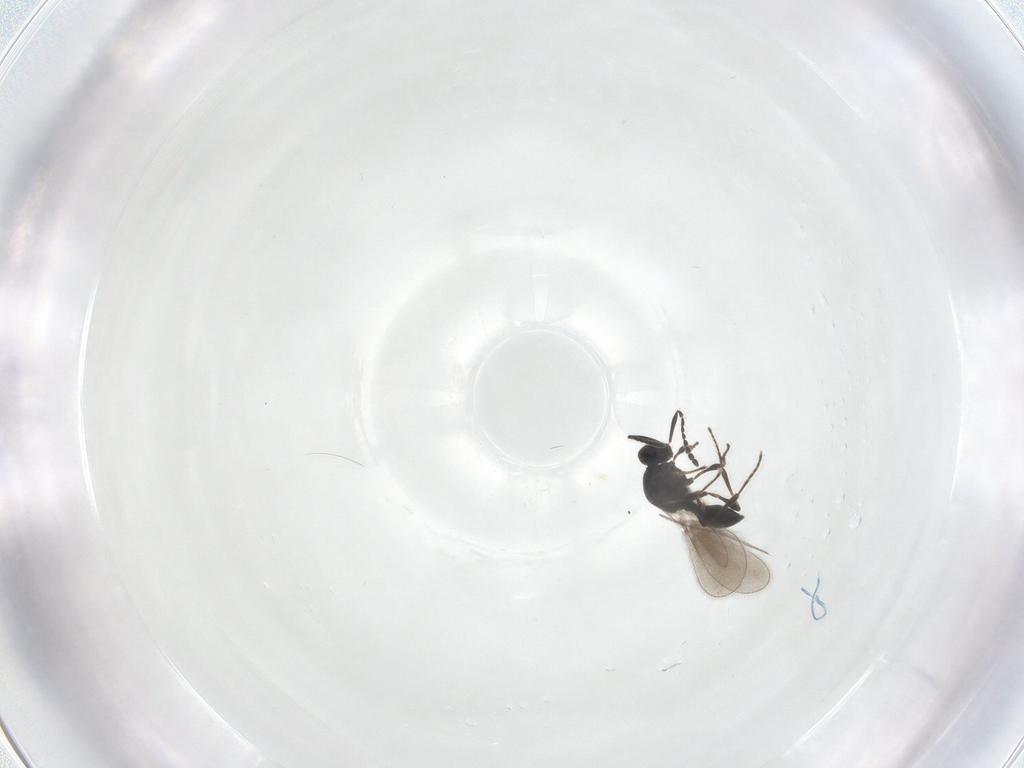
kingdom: Animalia
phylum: Arthropoda
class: Insecta
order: Hymenoptera
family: Platygastridae
